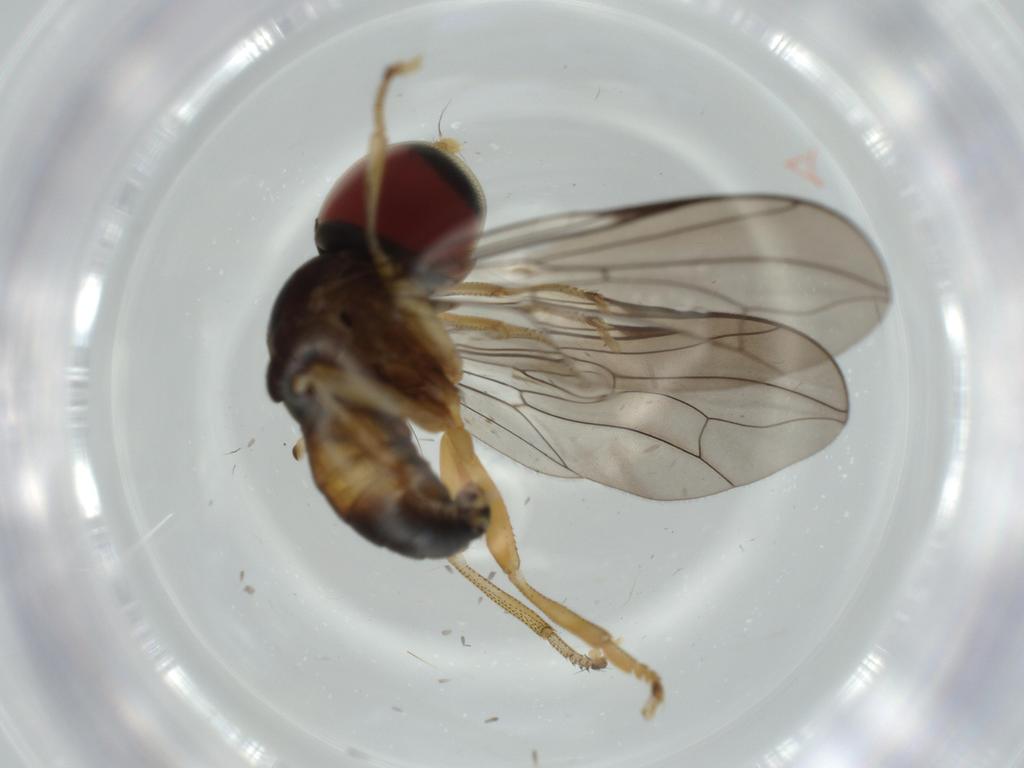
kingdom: Animalia
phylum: Arthropoda
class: Insecta
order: Diptera
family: Pipunculidae
